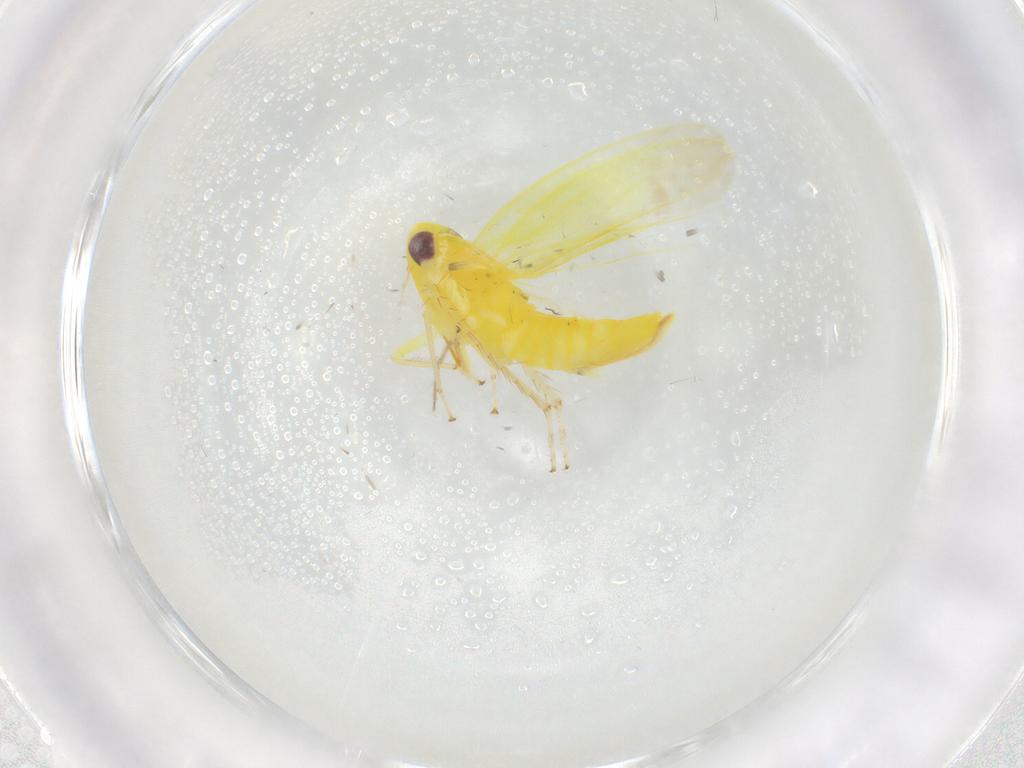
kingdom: Animalia
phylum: Arthropoda
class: Insecta
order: Hemiptera
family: Cicadellidae
